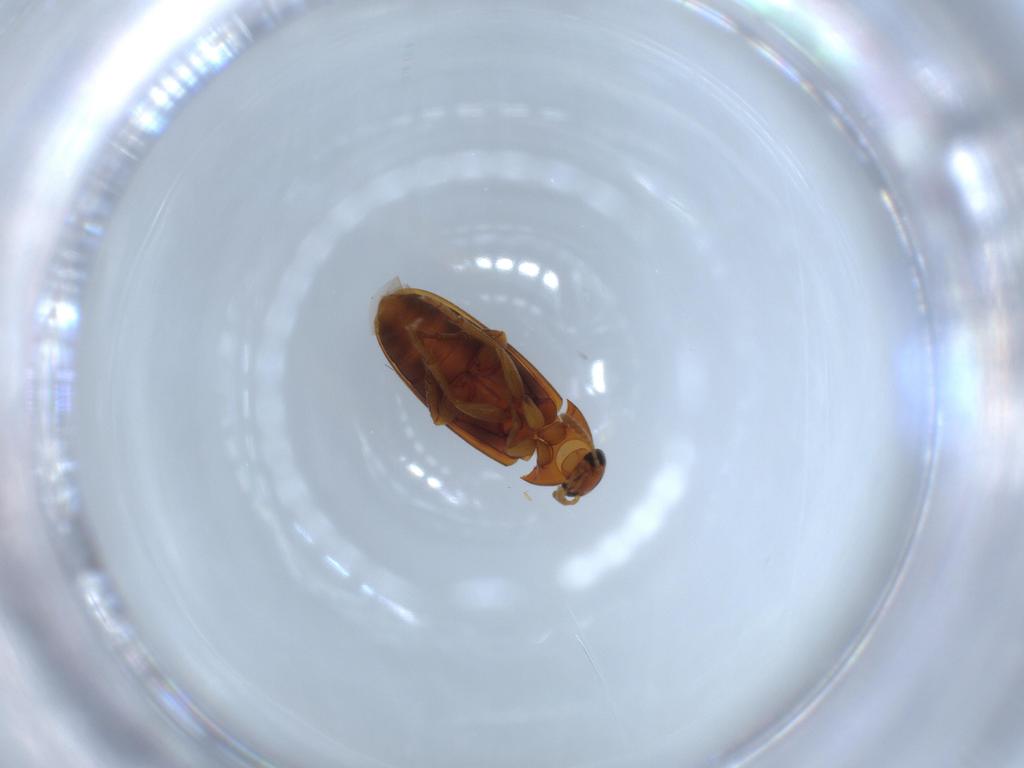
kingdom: Animalia
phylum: Arthropoda
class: Insecta
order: Coleoptera
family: Scraptiidae
